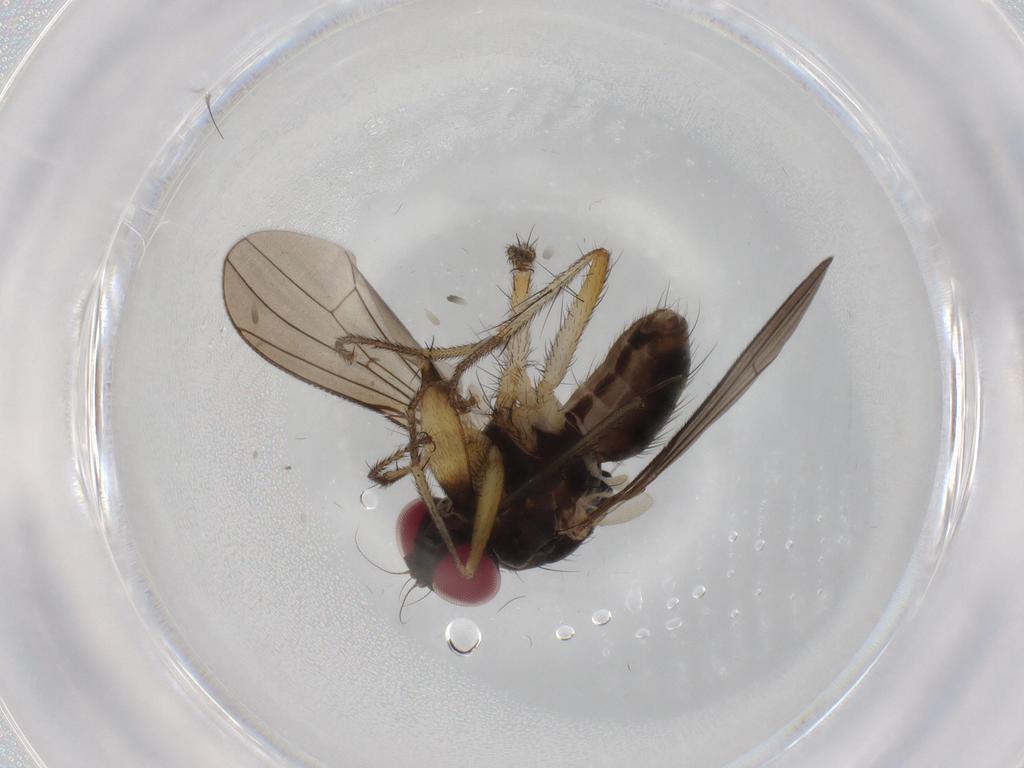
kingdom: Animalia
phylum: Arthropoda
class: Insecta
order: Diptera
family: Anthomyiidae
